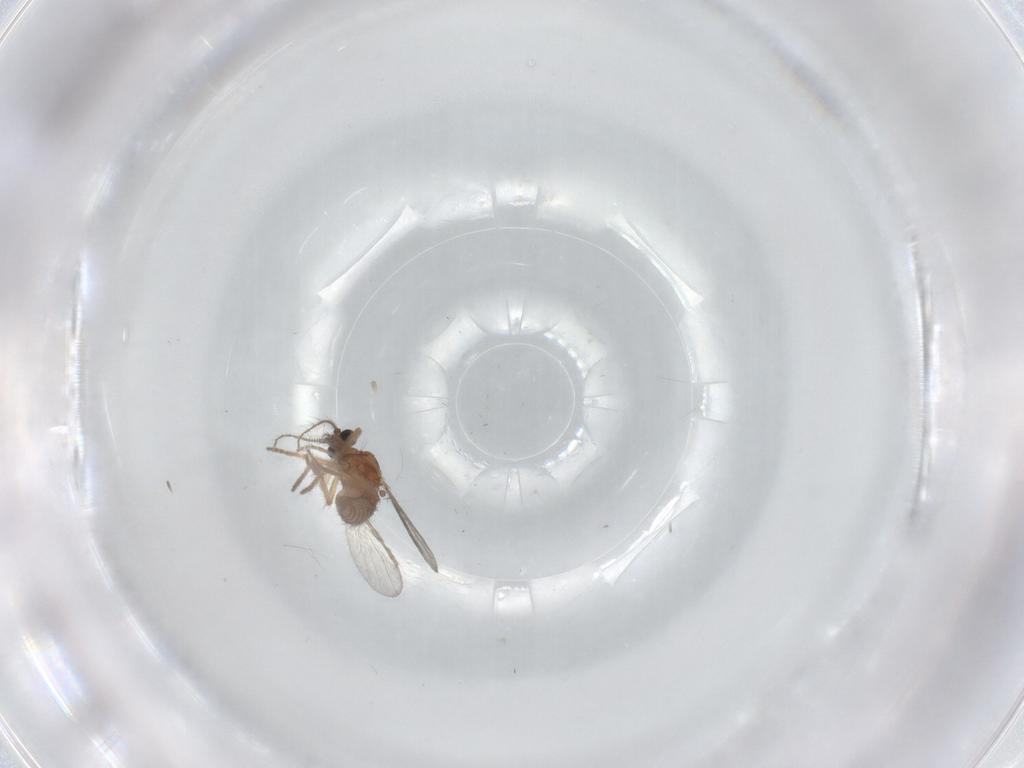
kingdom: Animalia
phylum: Arthropoda
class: Insecta
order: Diptera
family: Ceratopogonidae
